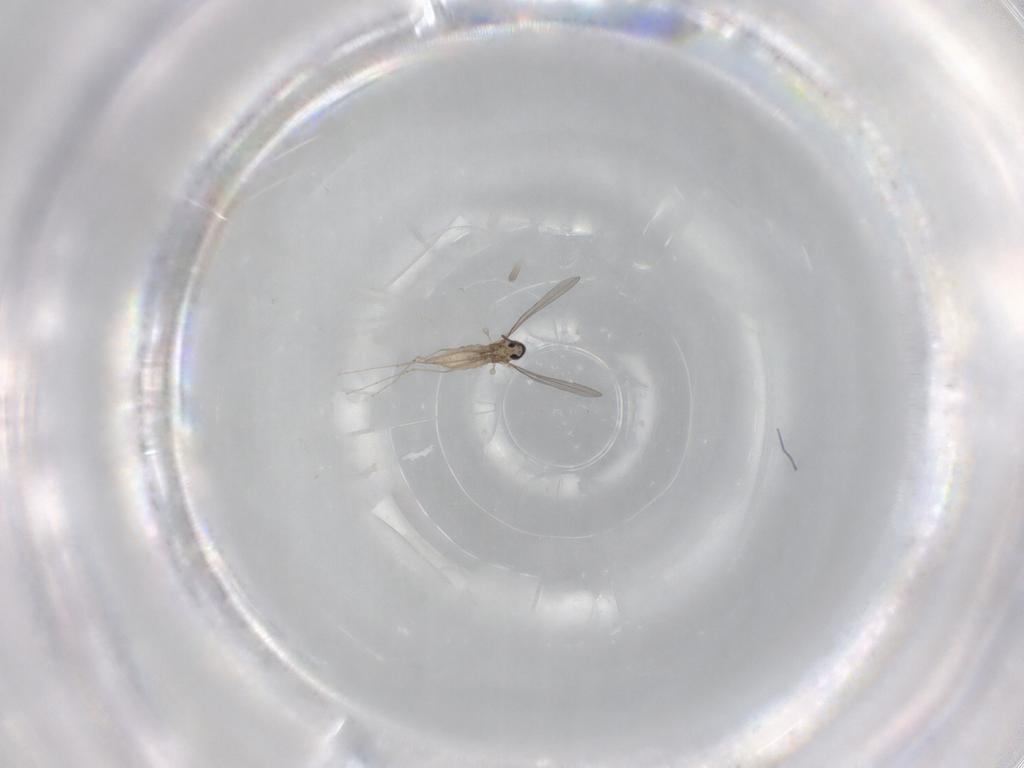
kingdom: Animalia
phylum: Arthropoda
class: Insecta
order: Diptera
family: Cecidomyiidae
